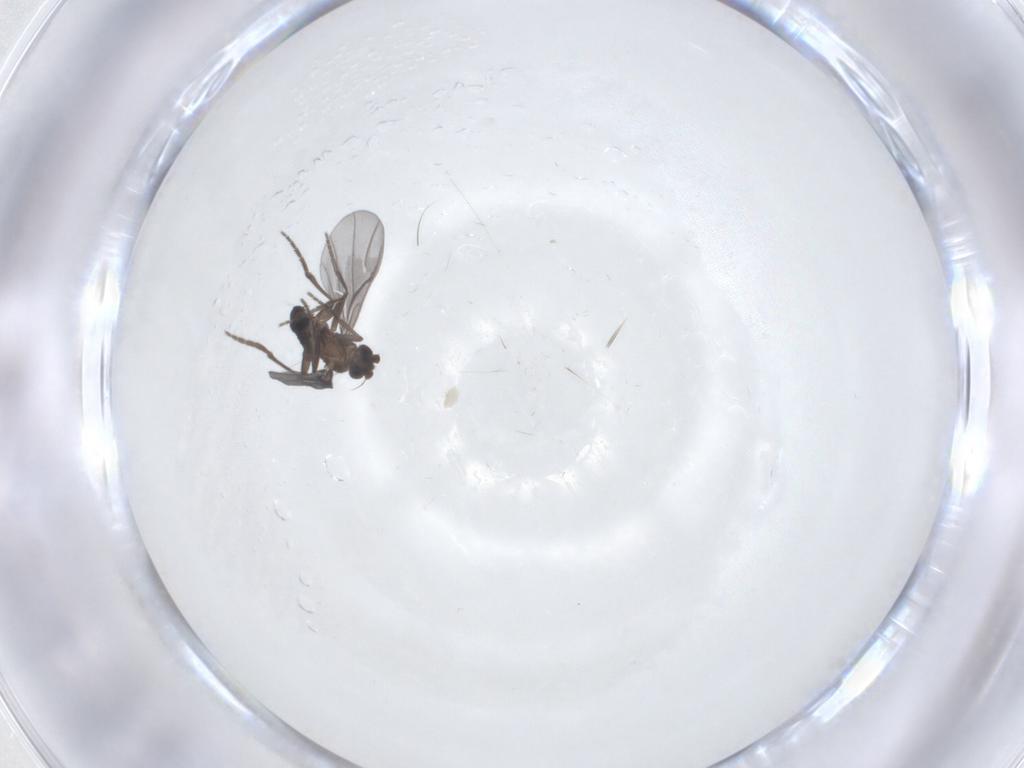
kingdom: Animalia
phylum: Arthropoda
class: Insecta
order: Diptera
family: Phoridae
